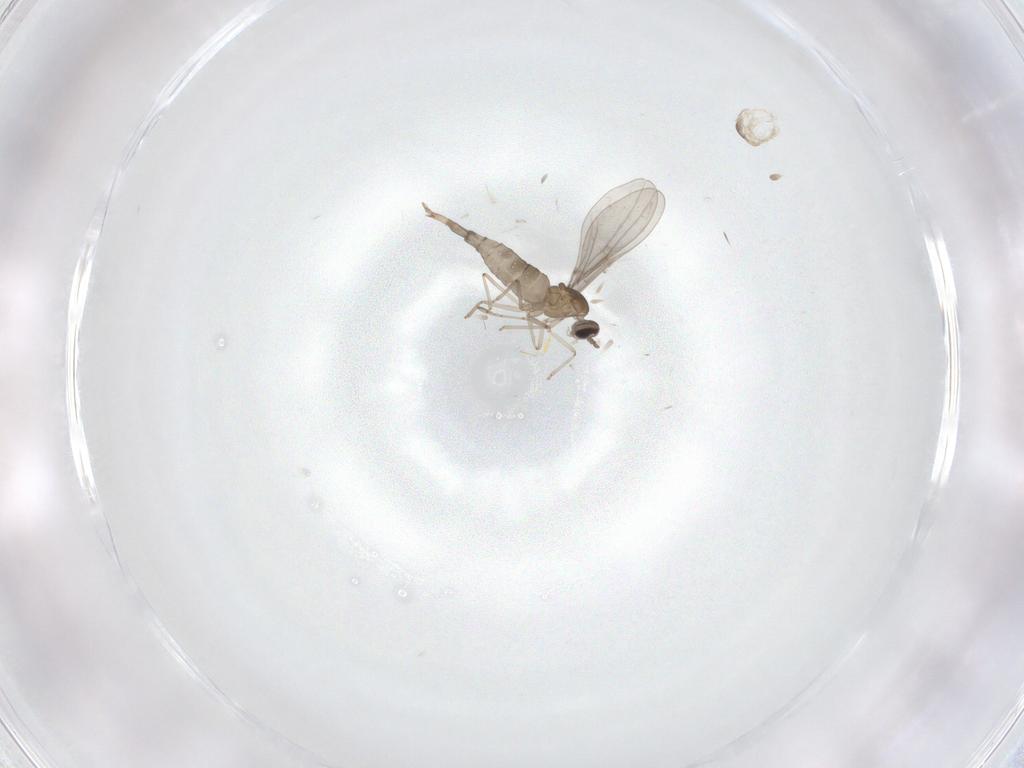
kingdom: Animalia
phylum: Arthropoda
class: Insecta
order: Diptera
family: Cecidomyiidae
